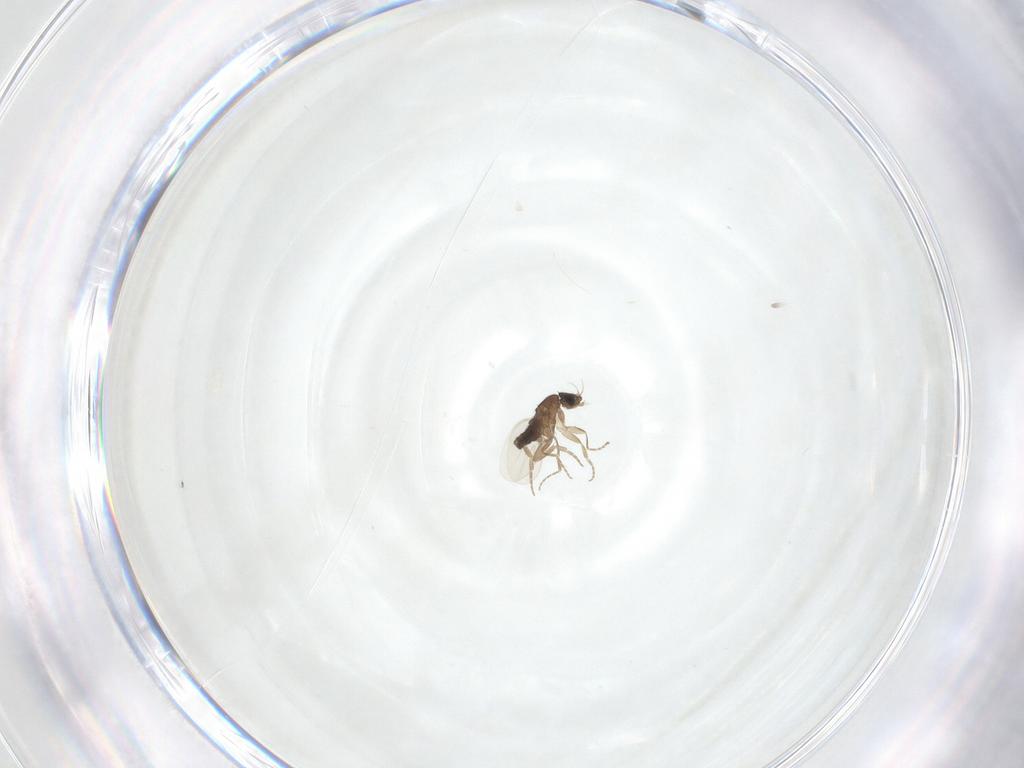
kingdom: Animalia
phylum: Arthropoda
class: Insecta
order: Diptera
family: Phoridae
